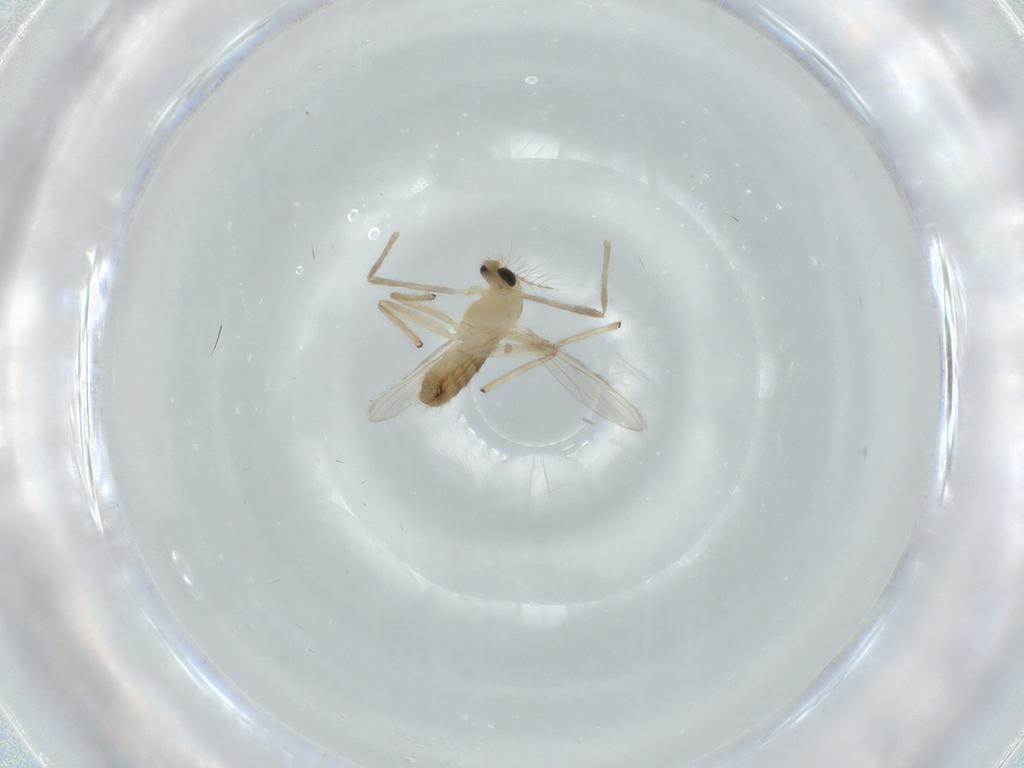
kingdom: Animalia
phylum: Arthropoda
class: Insecta
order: Diptera
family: Chironomidae
